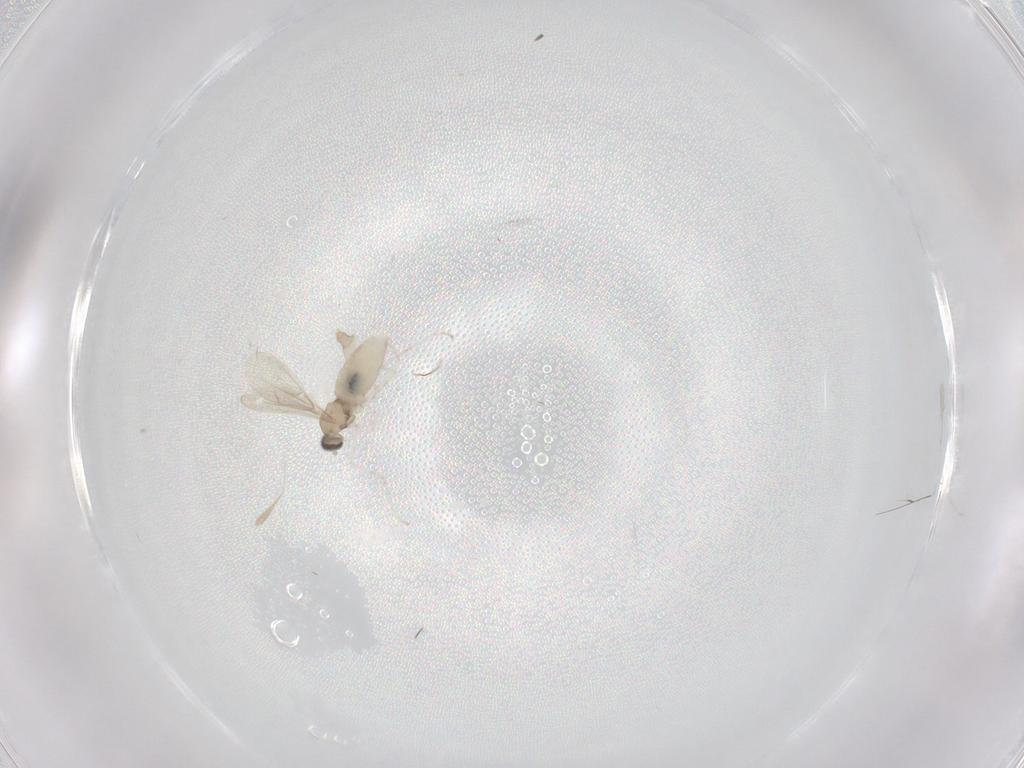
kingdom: Animalia
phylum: Arthropoda
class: Insecta
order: Diptera
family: Cecidomyiidae
